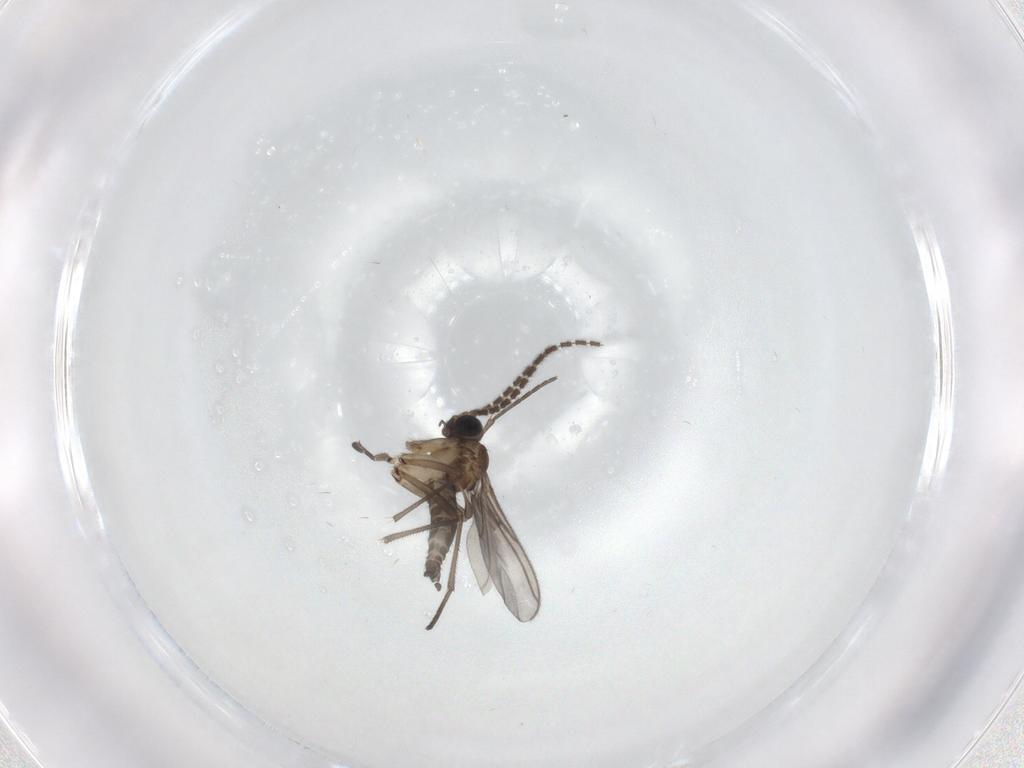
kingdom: Animalia
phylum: Arthropoda
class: Insecta
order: Diptera
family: Sciaridae
